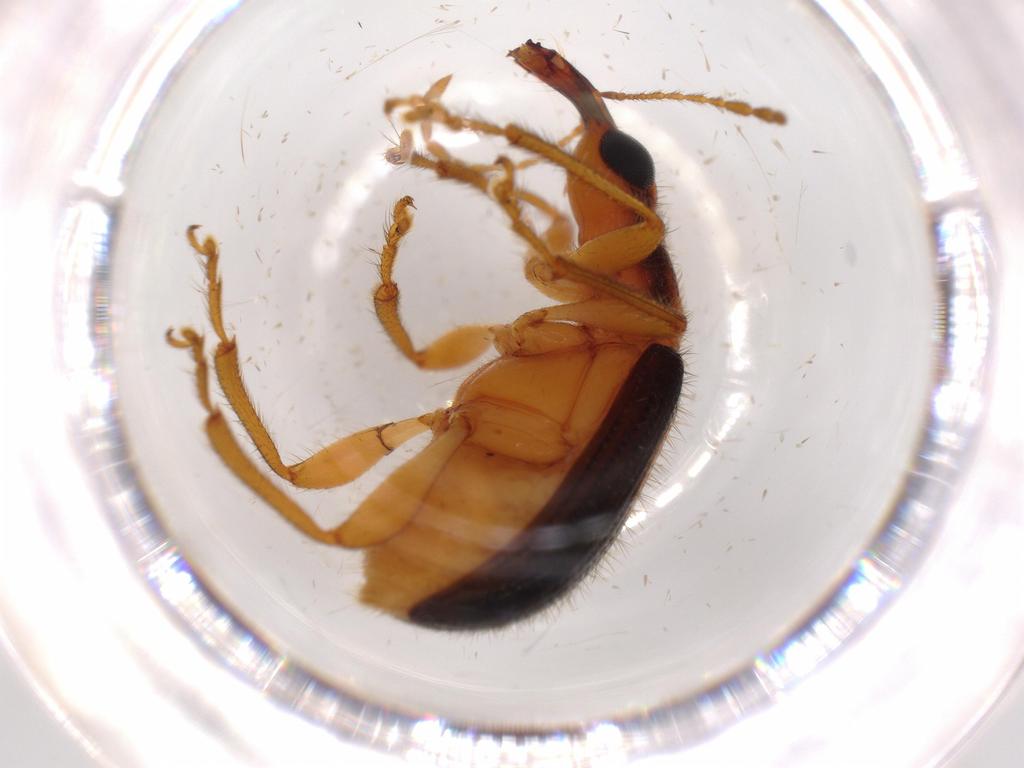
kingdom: Animalia
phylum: Arthropoda
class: Insecta
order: Coleoptera
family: Attelabidae
